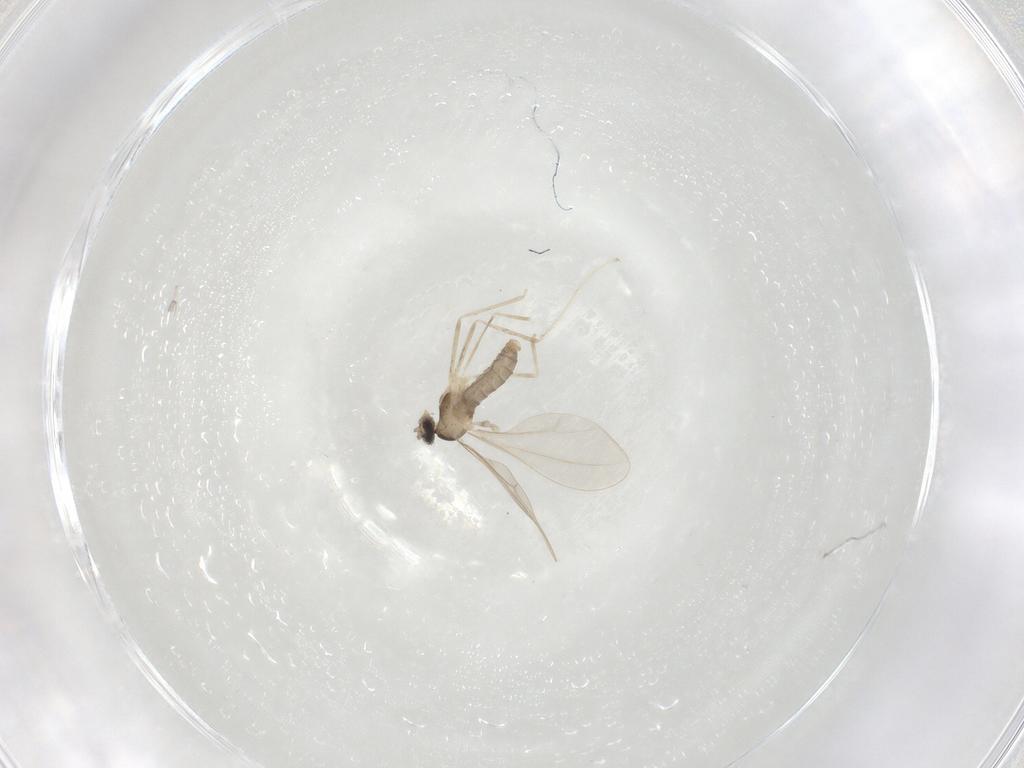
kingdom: Animalia
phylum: Arthropoda
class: Insecta
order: Diptera
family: Cecidomyiidae
